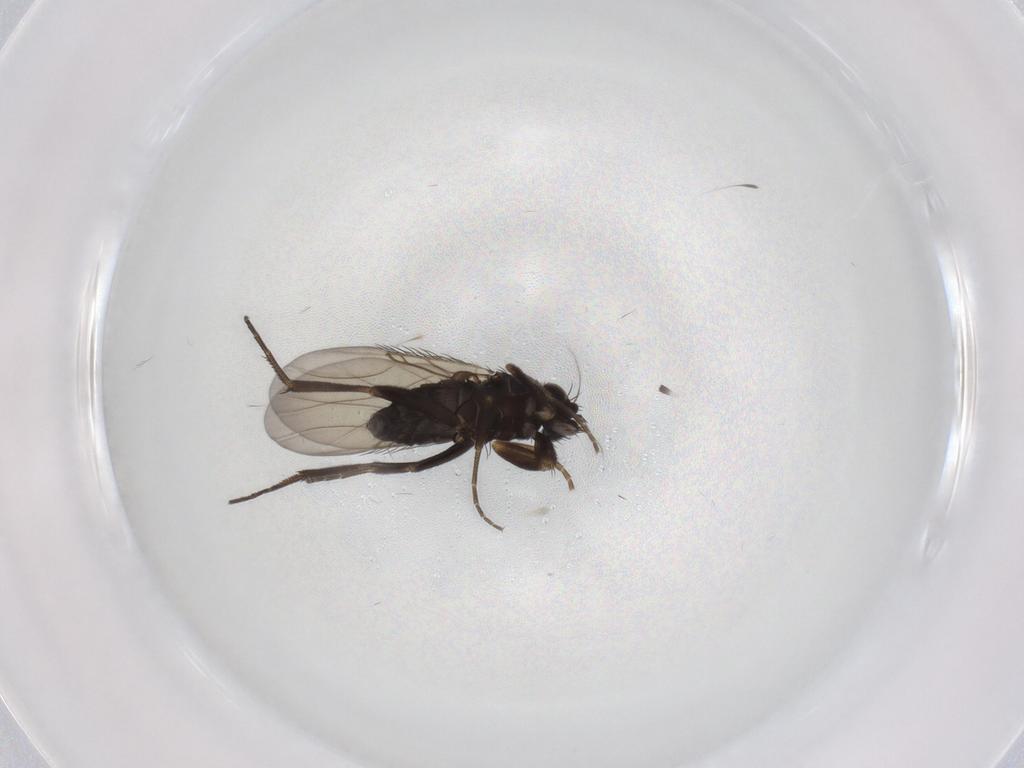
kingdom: Animalia
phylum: Arthropoda
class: Insecta
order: Diptera
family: Phoridae
